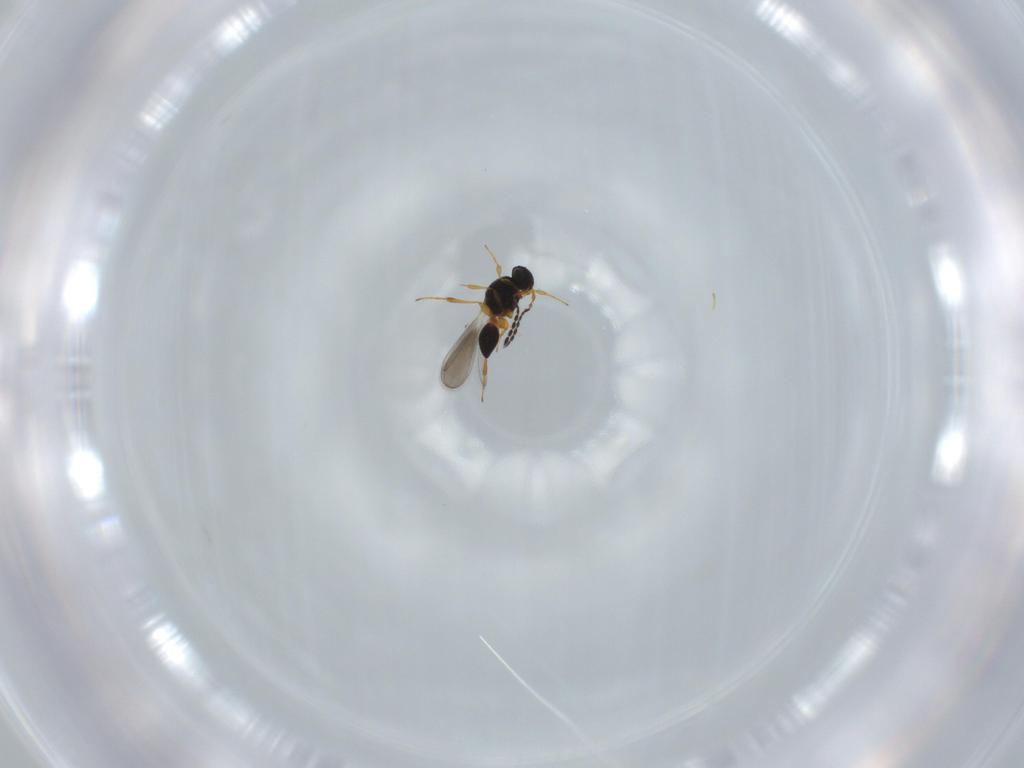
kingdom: Animalia
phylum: Arthropoda
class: Insecta
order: Hymenoptera
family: Platygastridae
